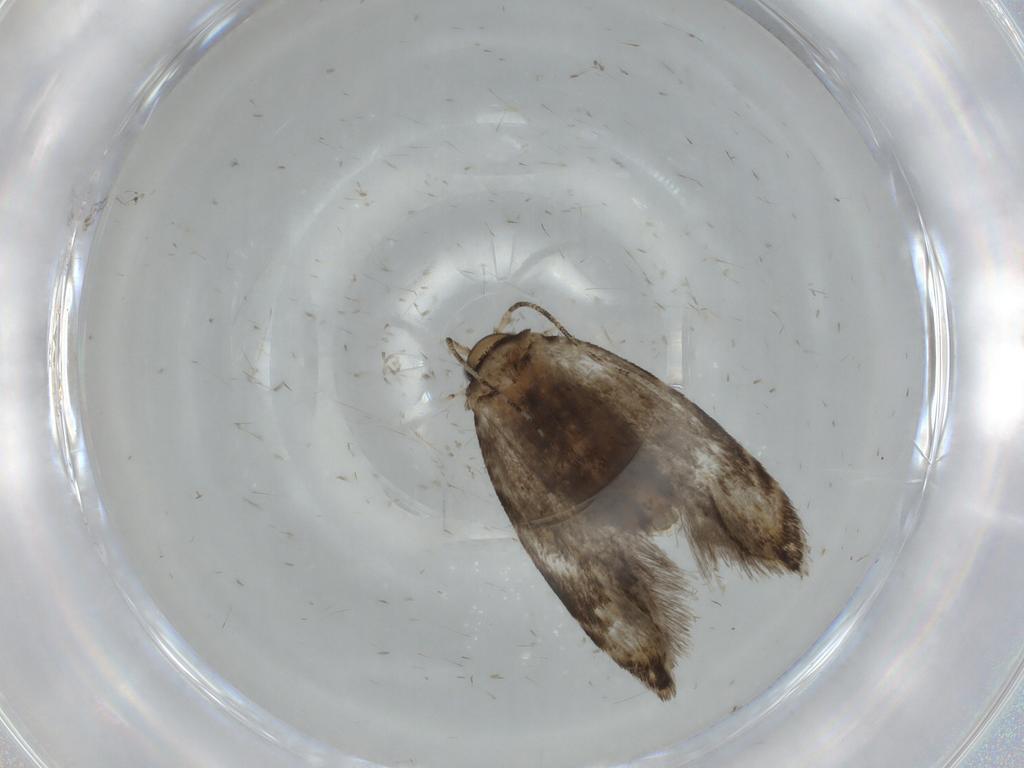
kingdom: Animalia
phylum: Arthropoda
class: Insecta
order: Lepidoptera
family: Tineidae
